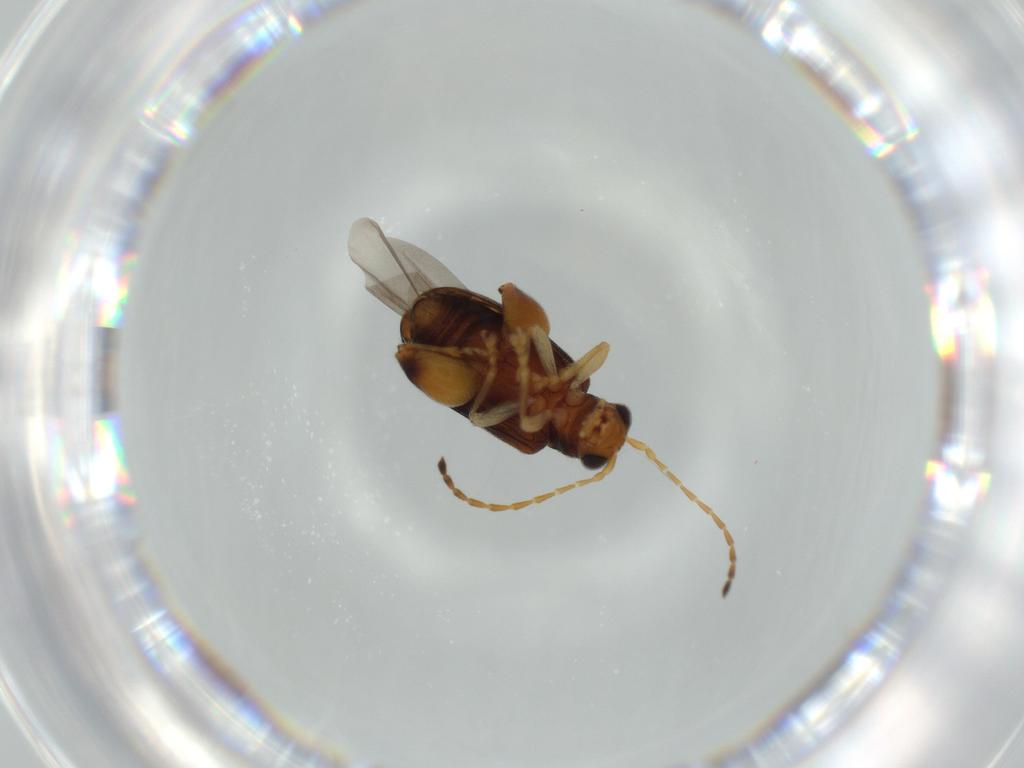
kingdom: Animalia
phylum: Arthropoda
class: Insecta
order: Coleoptera
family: Chrysomelidae
